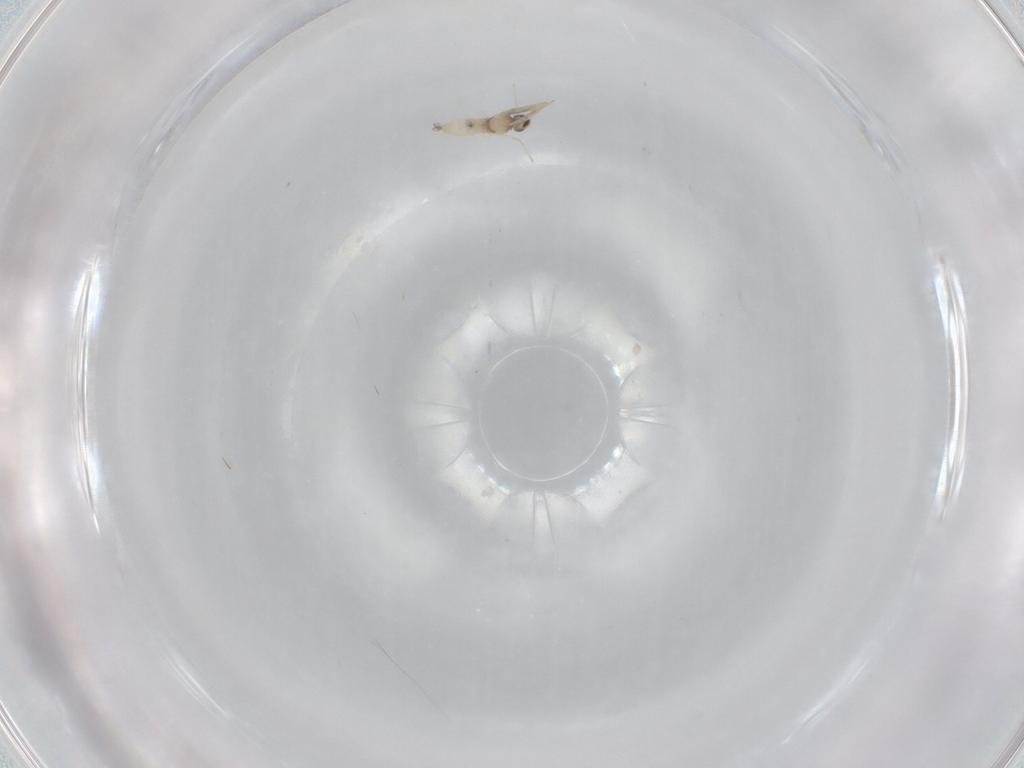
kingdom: Animalia
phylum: Arthropoda
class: Insecta
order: Diptera
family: Cecidomyiidae
